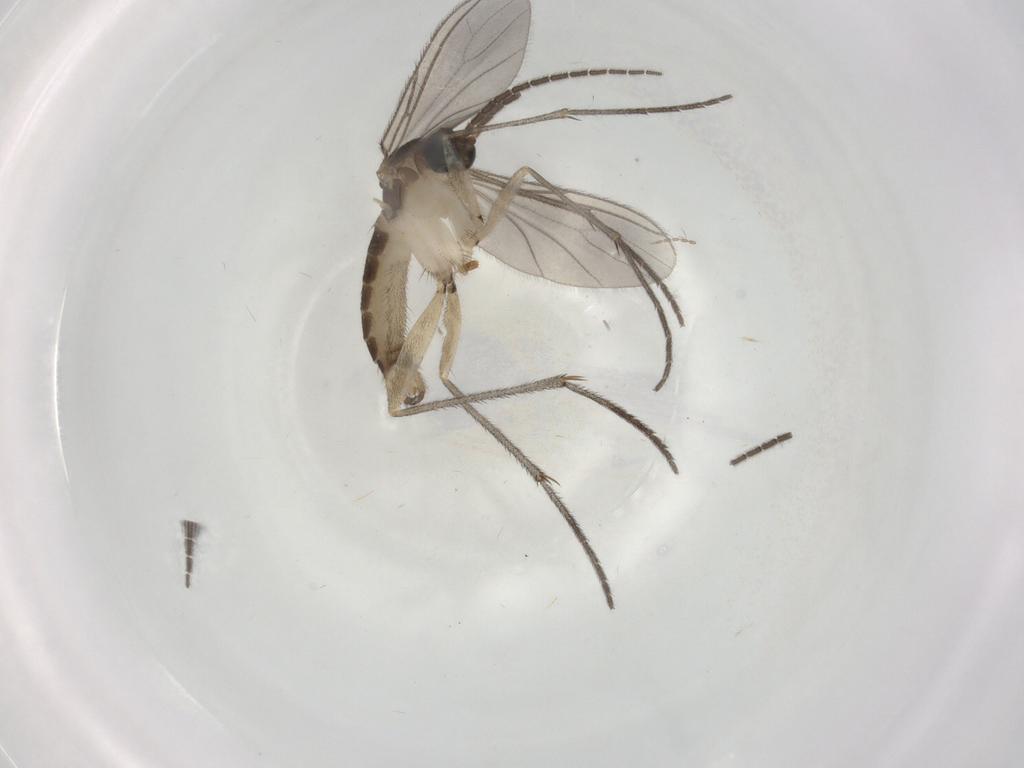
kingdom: Animalia
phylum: Arthropoda
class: Insecta
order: Diptera
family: Sciaridae
